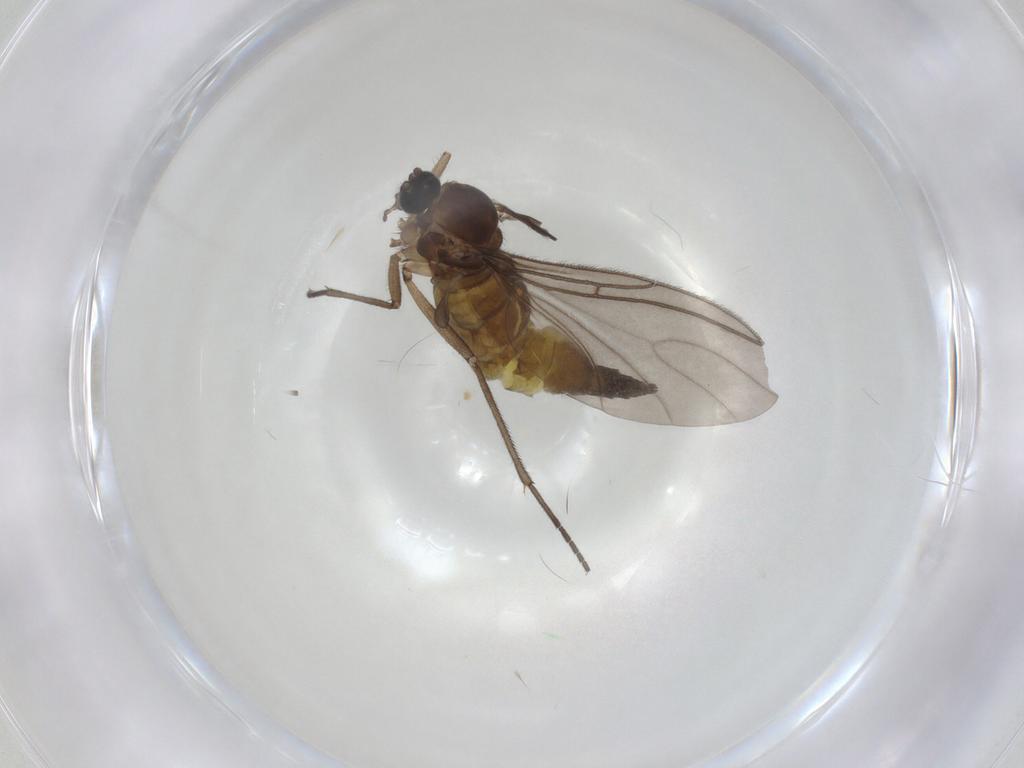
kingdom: Animalia
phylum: Arthropoda
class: Insecta
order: Diptera
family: Sciaridae
